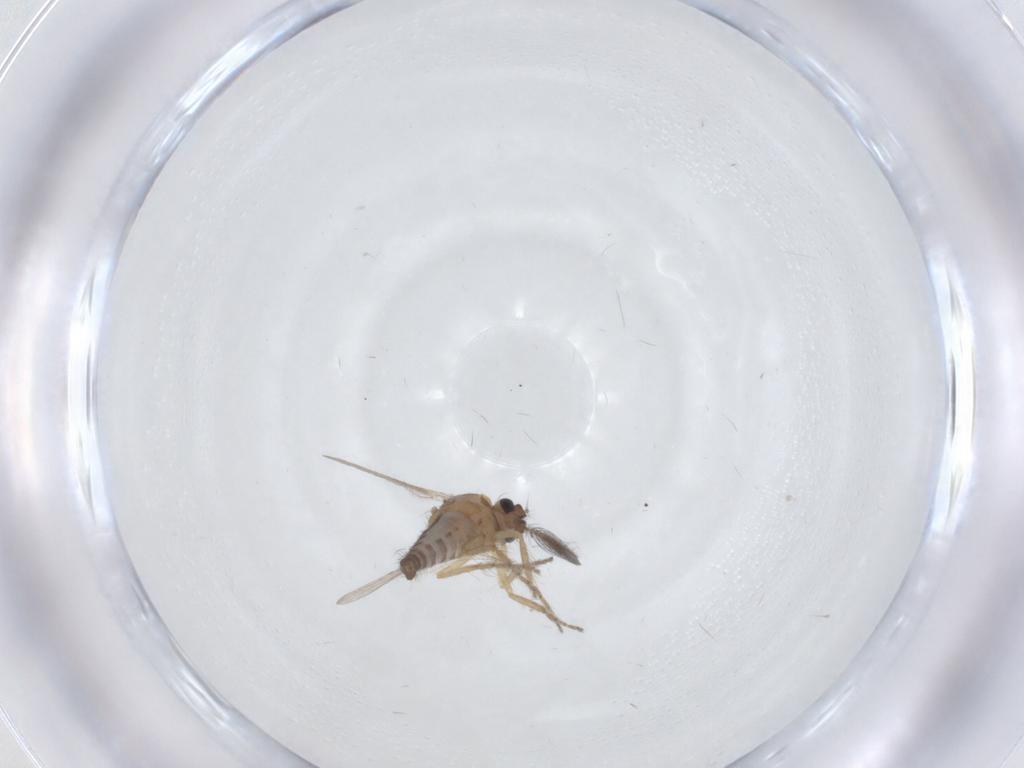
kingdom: Animalia
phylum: Arthropoda
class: Insecta
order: Diptera
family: Ceratopogonidae
